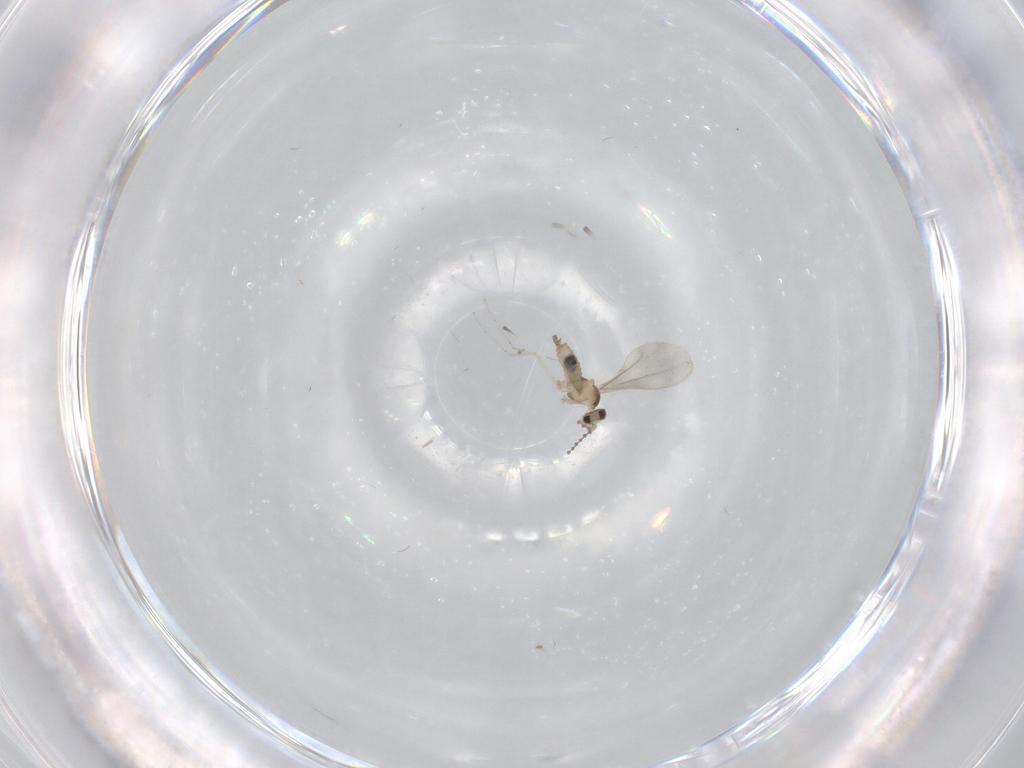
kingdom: Animalia
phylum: Arthropoda
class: Insecta
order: Diptera
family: Cecidomyiidae
